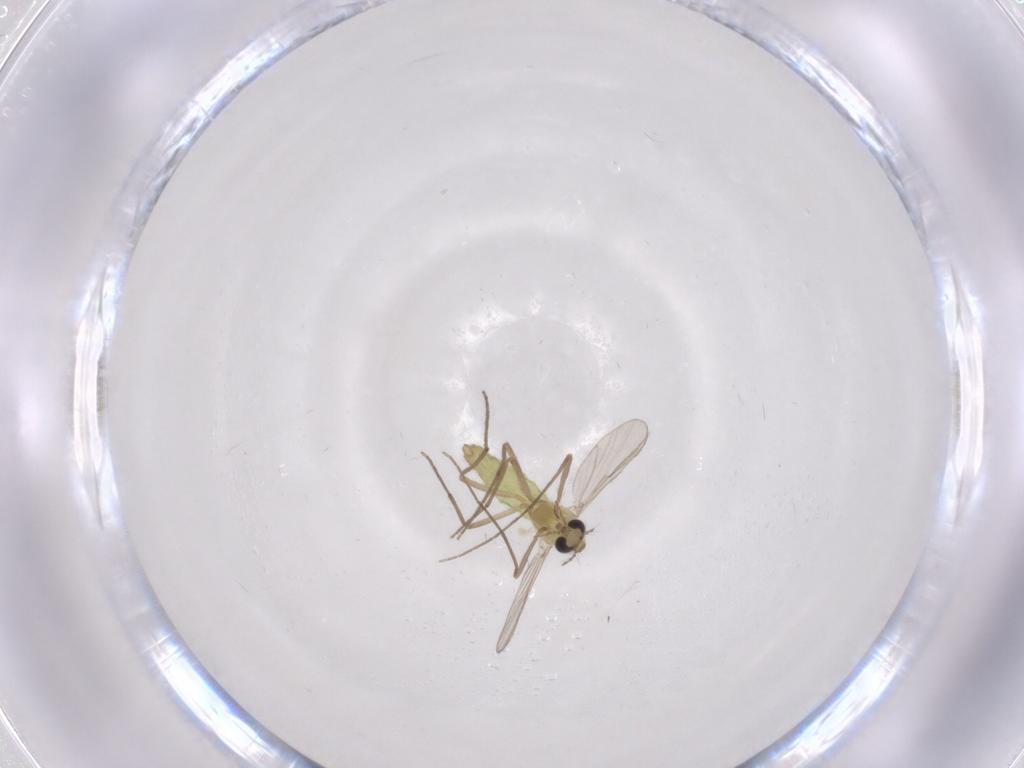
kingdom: Animalia
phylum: Arthropoda
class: Insecta
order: Diptera
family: Chironomidae
